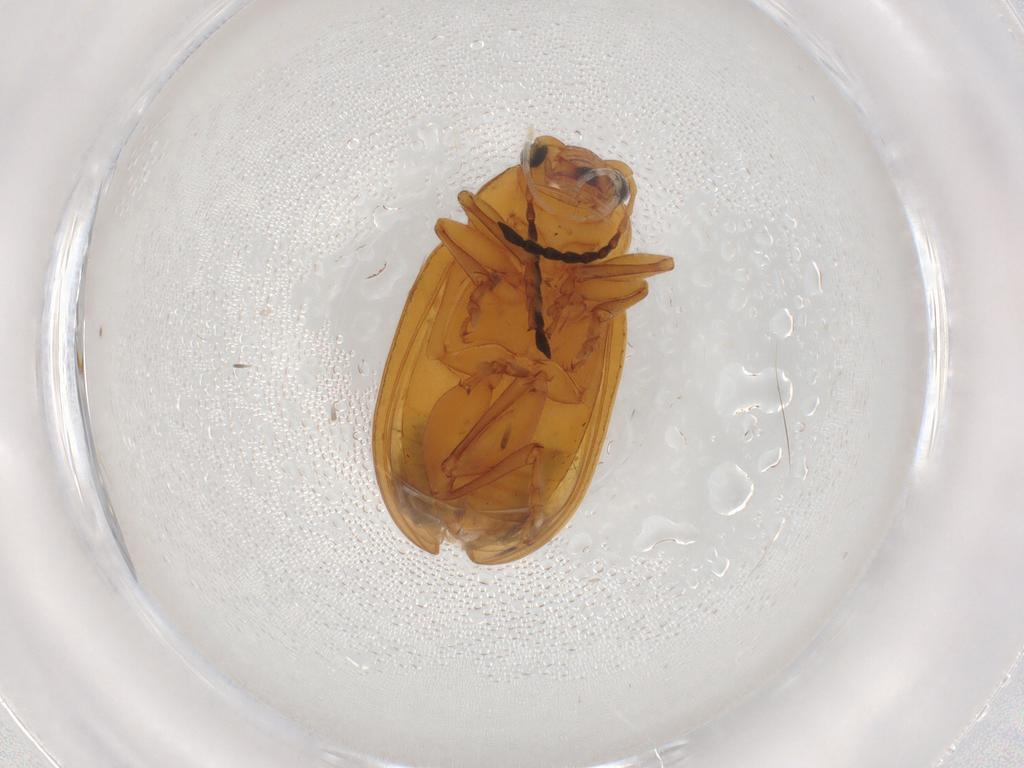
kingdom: Animalia
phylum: Arthropoda
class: Insecta
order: Coleoptera
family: Chrysomelidae
